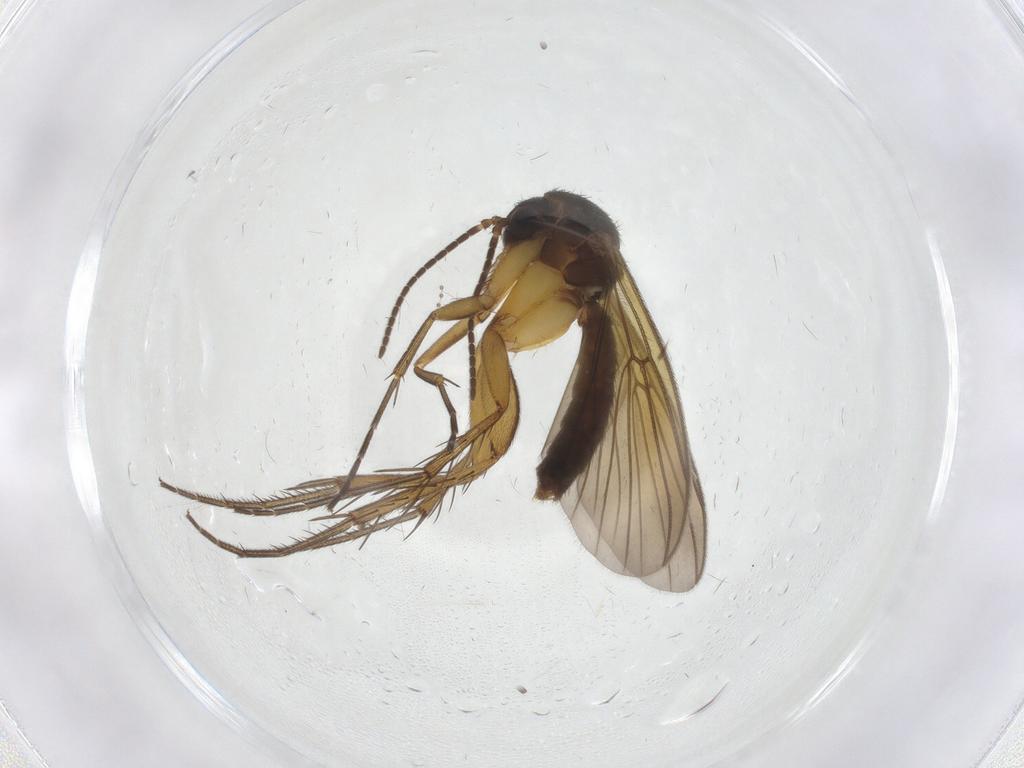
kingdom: Animalia
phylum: Arthropoda
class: Insecta
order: Diptera
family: Mycetophilidae
